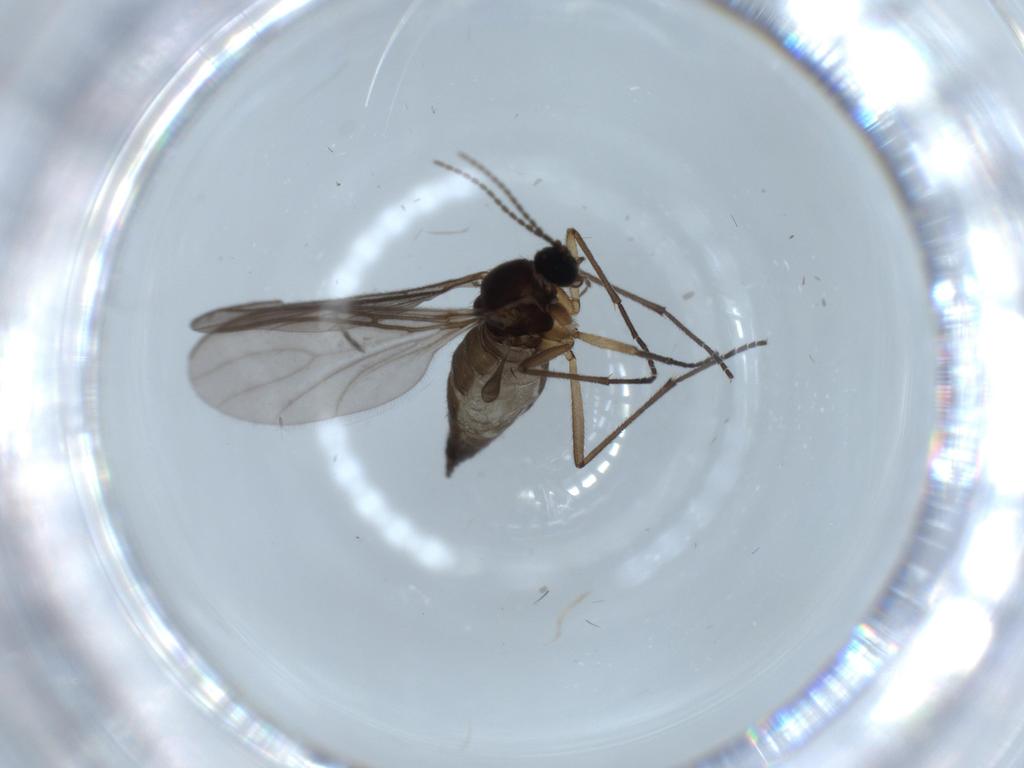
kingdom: Animalia
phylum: Arthropoda
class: Insecta
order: Diptera
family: Sciaridae
